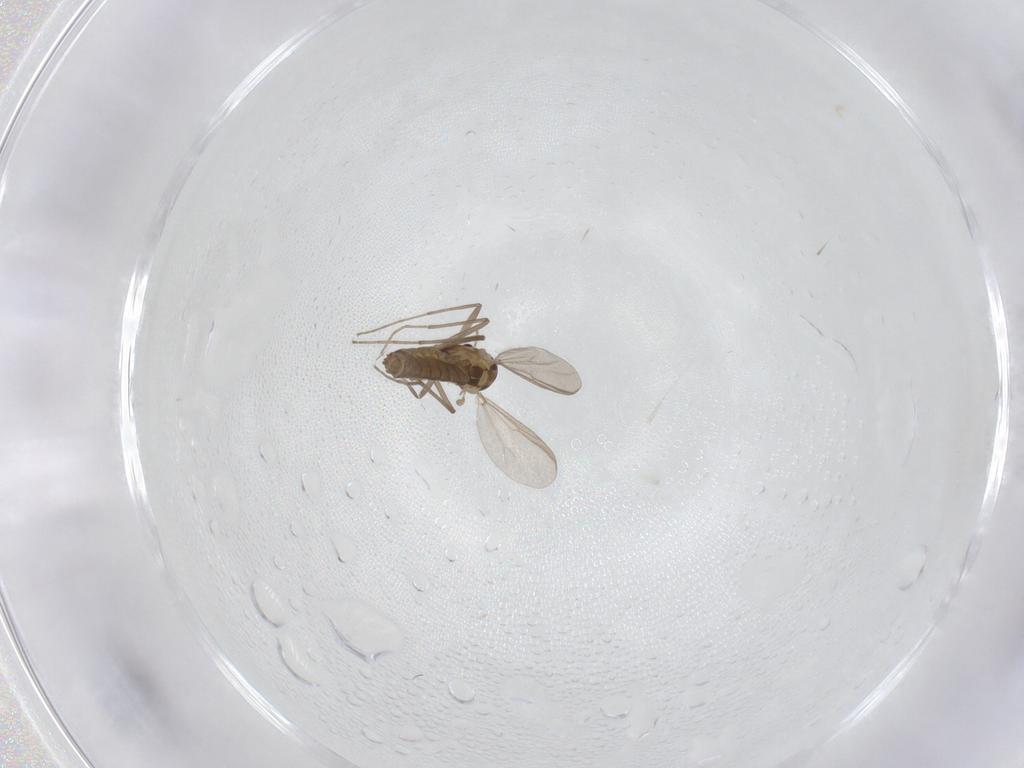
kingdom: Animalia
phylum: Arthropoda
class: Insecta
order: Diptera
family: Chironomidae
